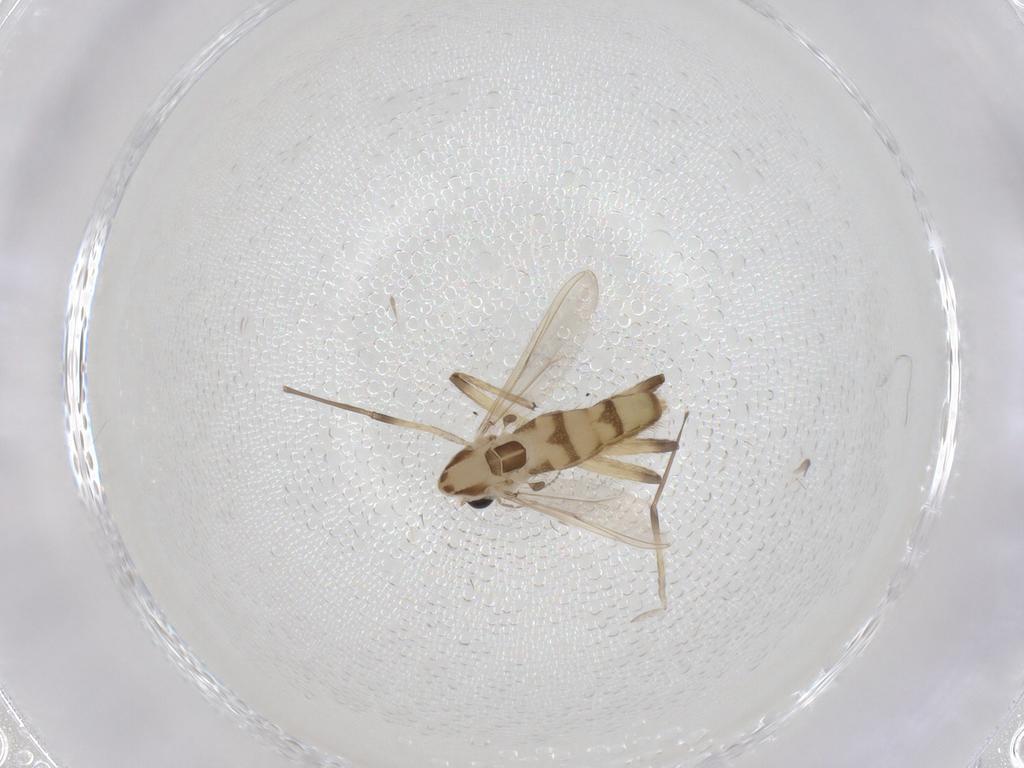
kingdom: Animalia
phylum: Arthropoda
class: Insecta
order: Diptera
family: Chironomidae
